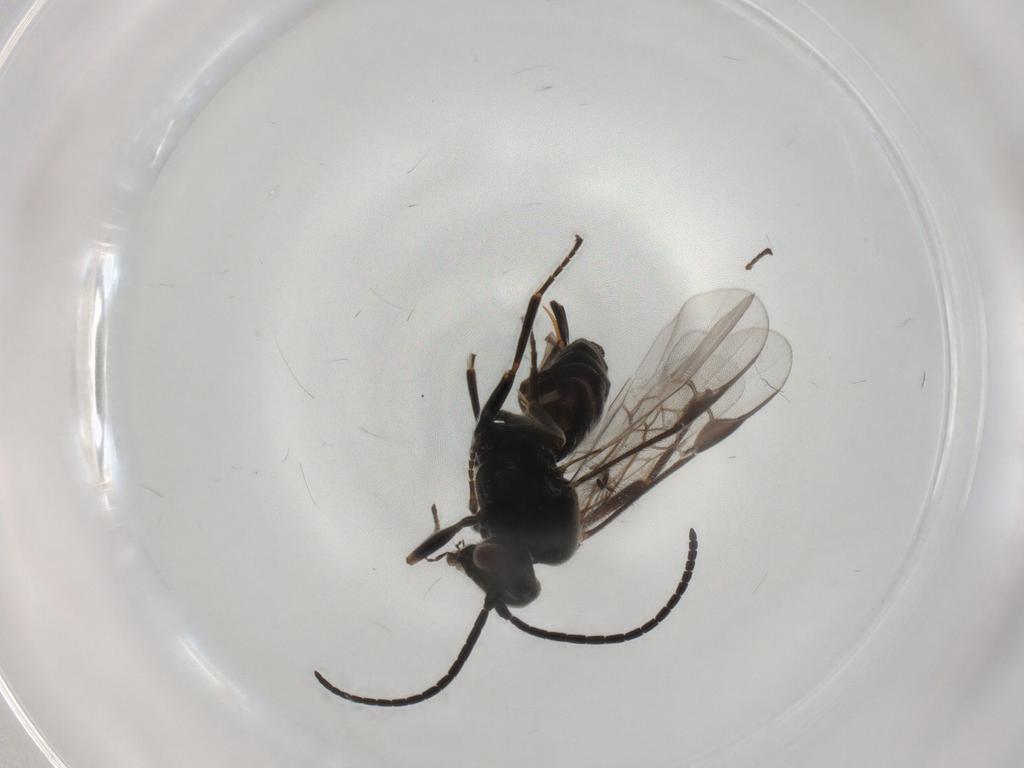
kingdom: Animalia
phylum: Arthropoda
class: Insecta
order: Hymenoptera
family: Braconidae
